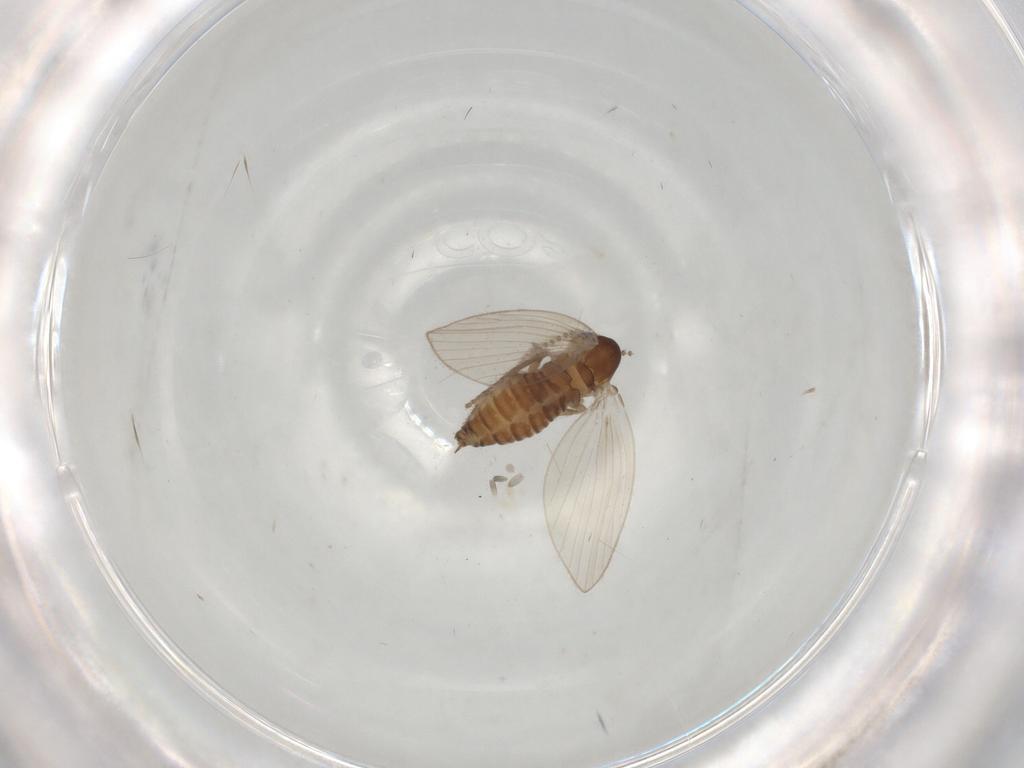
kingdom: Animalia
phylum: Arthropoda
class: Insecta
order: Diptera
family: Psychodidae
